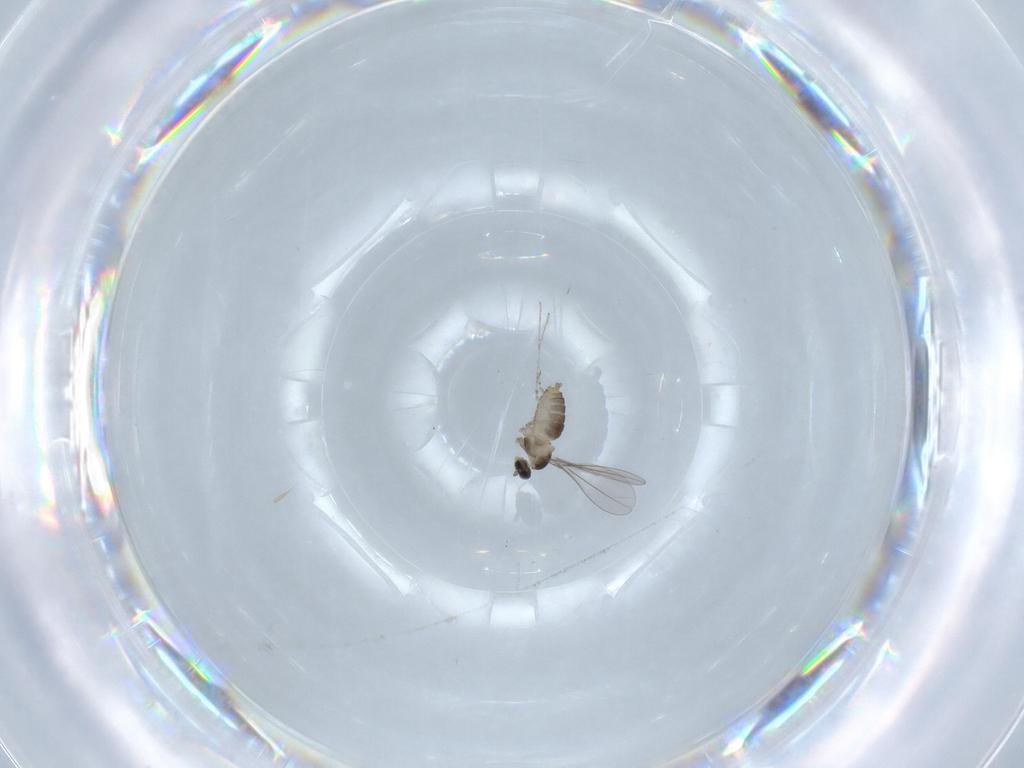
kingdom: Animalia
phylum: Arthropoda
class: Insecta
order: Diptera
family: Cecidomyiidae
